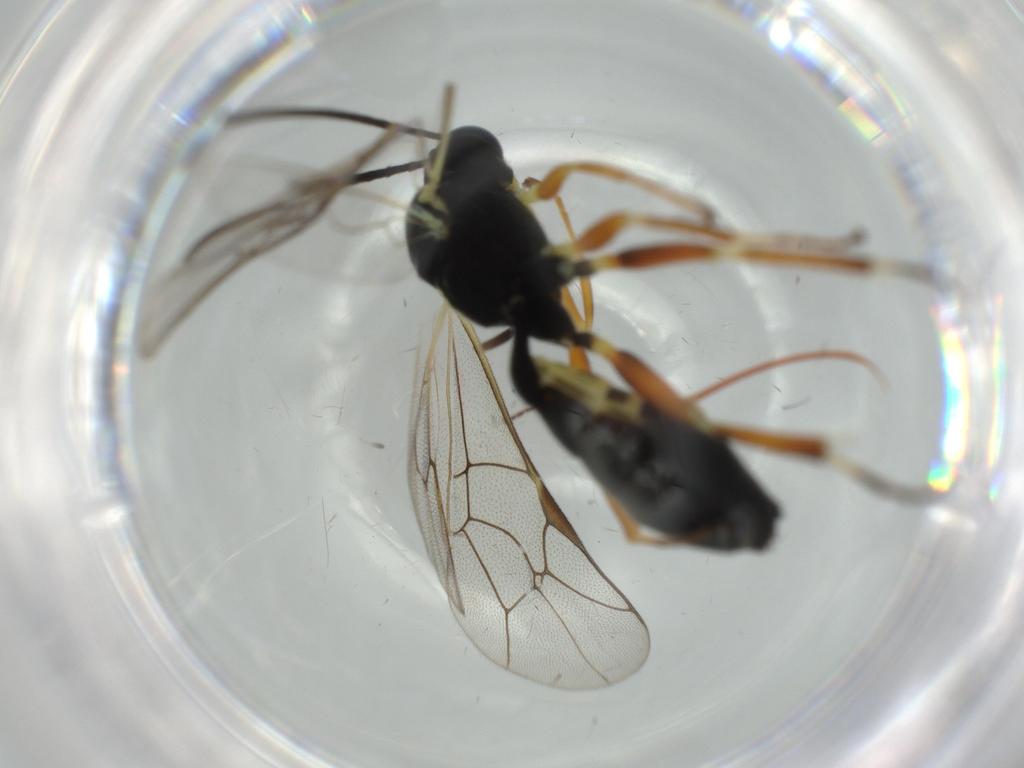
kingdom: Animalia
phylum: Arthropoda
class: Insecta
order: Hymenoptera
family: Ichneumonidae
